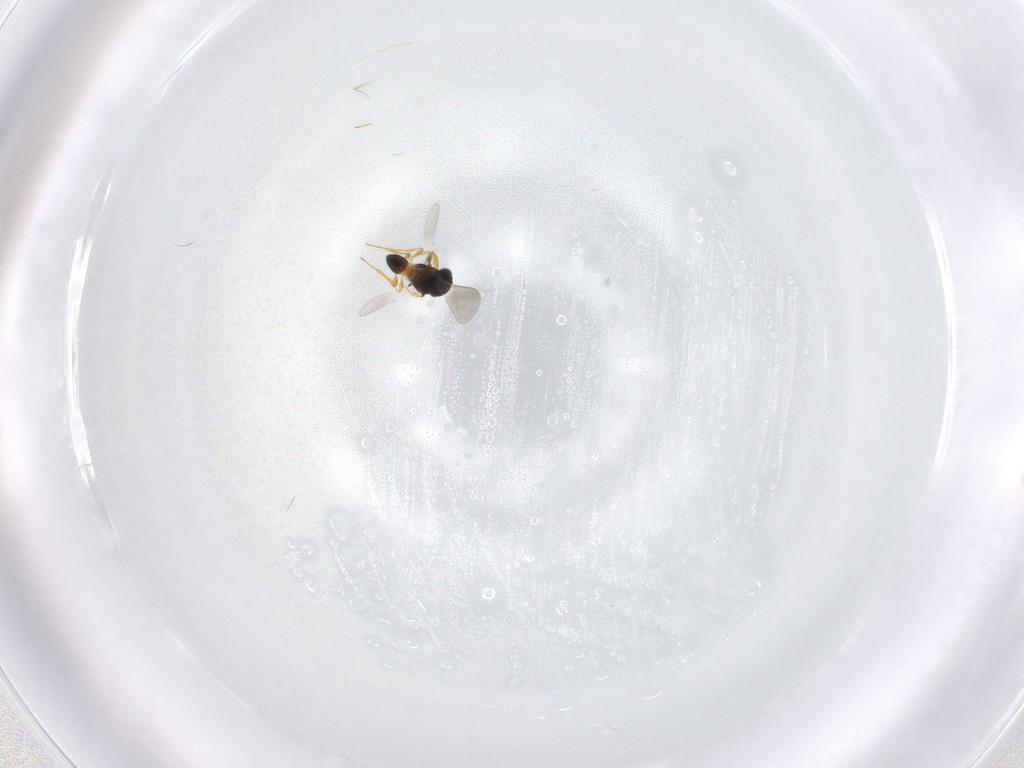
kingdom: Animalia
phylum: Arthropoda
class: Insecta
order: Hymenoptera
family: Platygastridae
